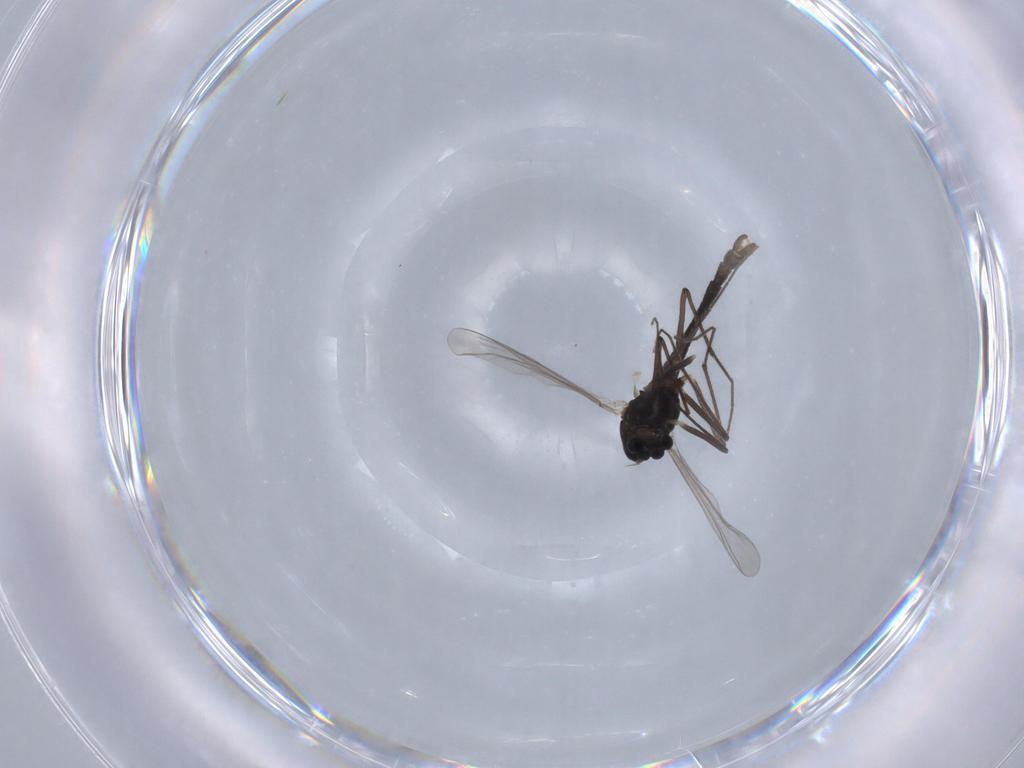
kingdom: Animalia
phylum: Arthropoda
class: Insecta
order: Diptera
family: Chironomidae
